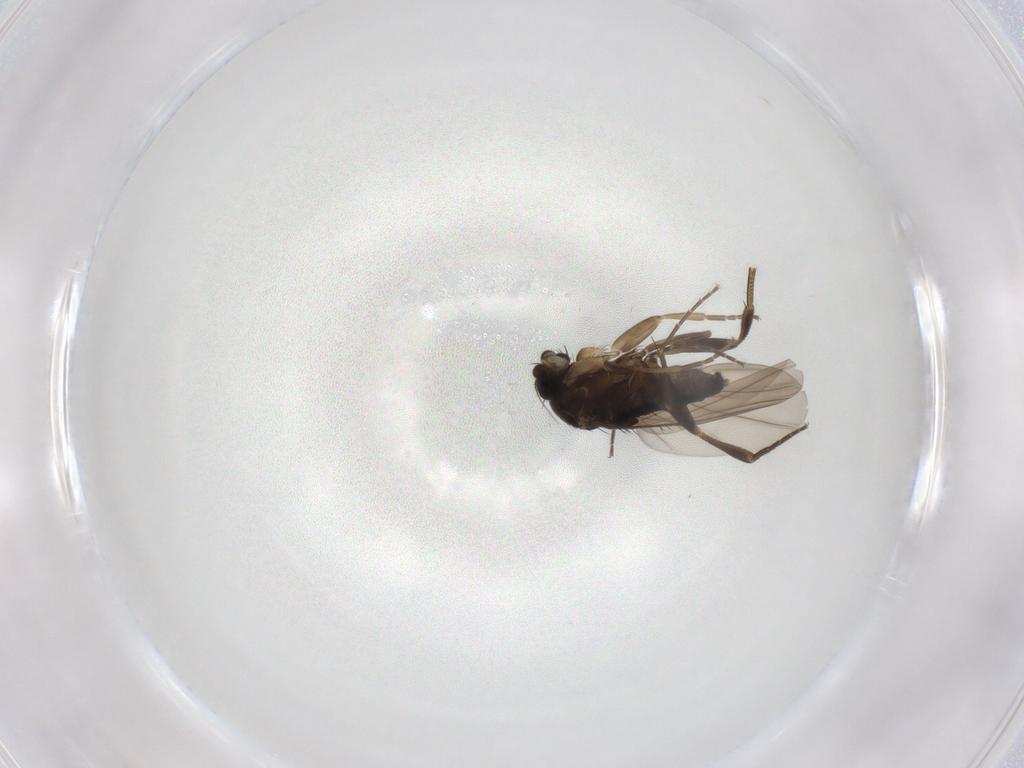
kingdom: Animalia
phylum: Arthropoda
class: Insecta
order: Diptera
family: Phoridae
